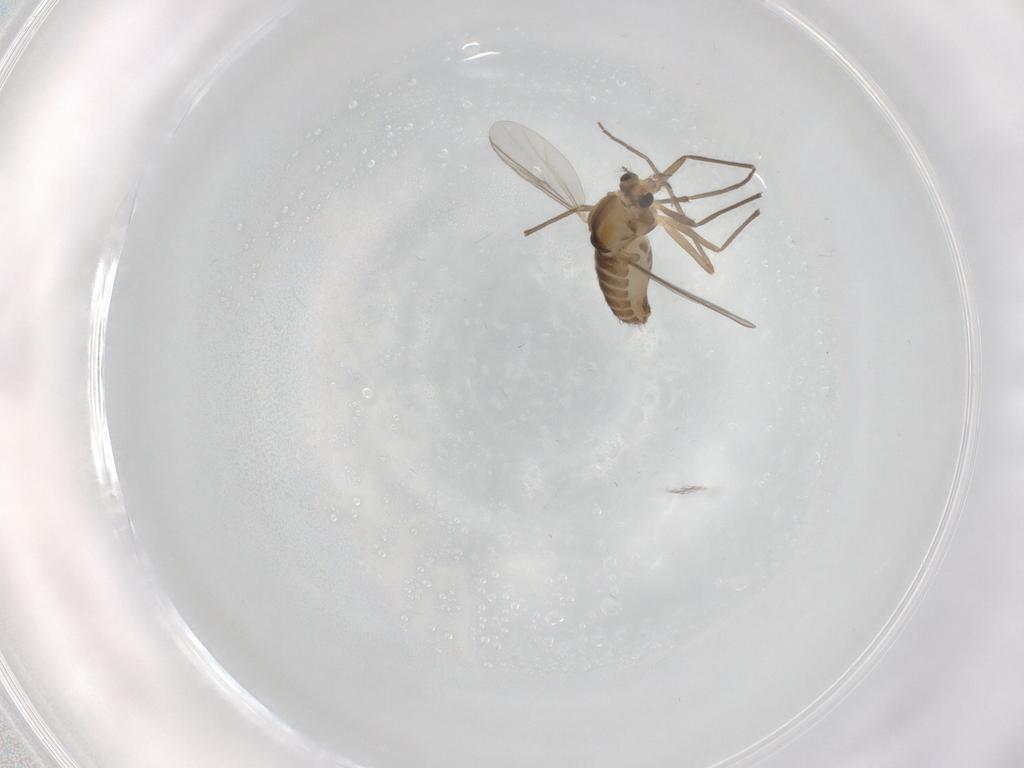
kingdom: Animalia
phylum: Arthropoda
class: Insecta
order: Diptera
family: Chironomidae
